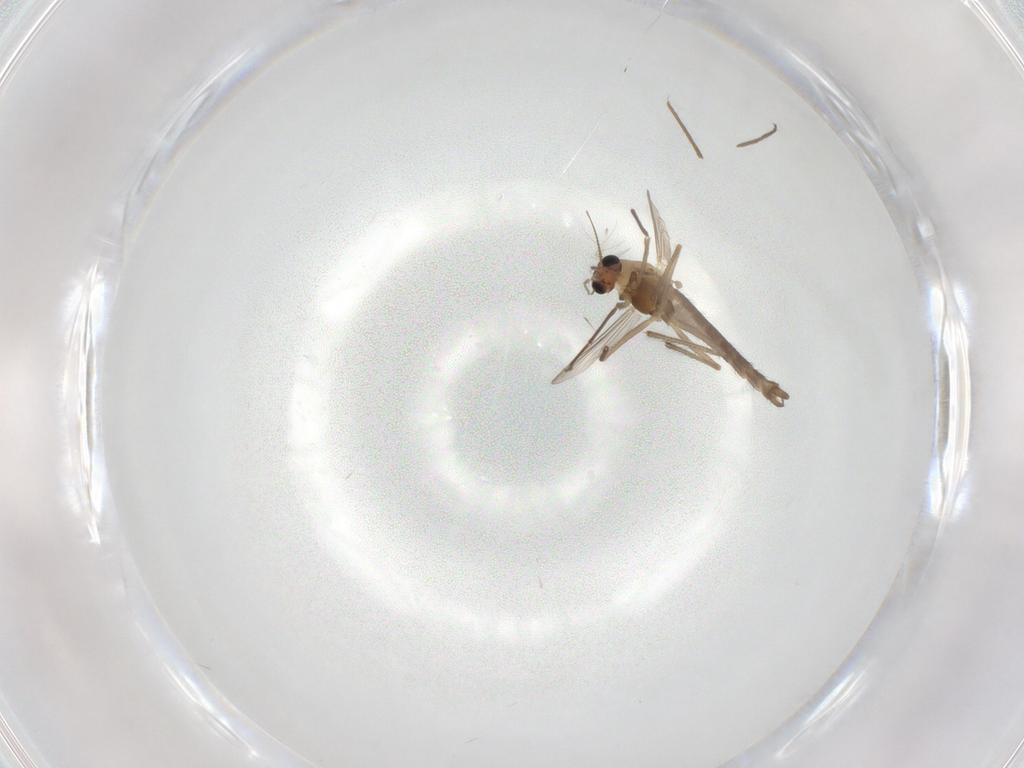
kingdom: Animalia
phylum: Arthropoda
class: Insecta
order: Diptera
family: Chironomidae
